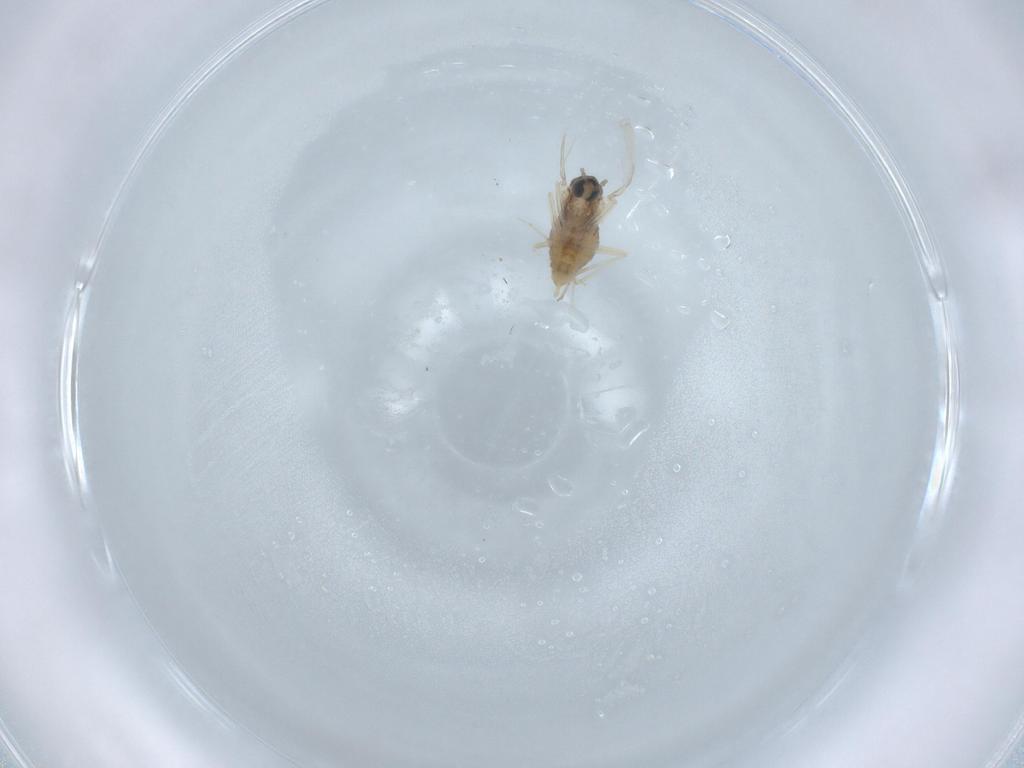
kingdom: Animalia
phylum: Arthropoda
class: Insecta
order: Diptera
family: Cecidomyiidae
